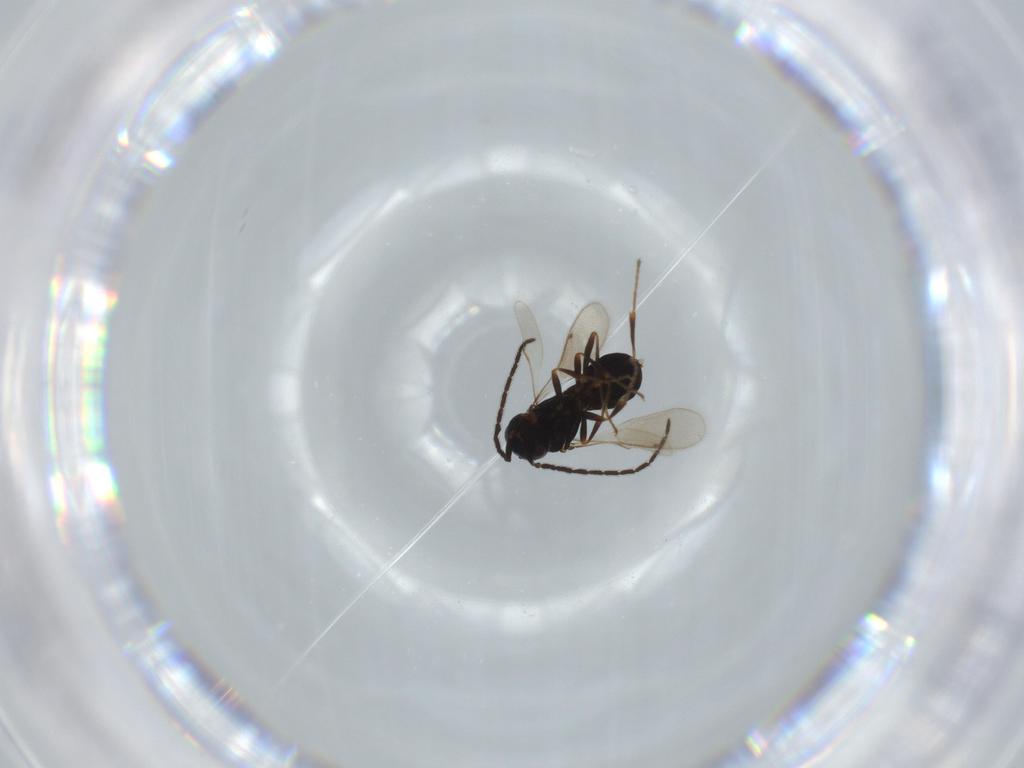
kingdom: Animalia
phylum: Arthropoda
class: Insecta
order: Hymenoptera
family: Scelionidae
